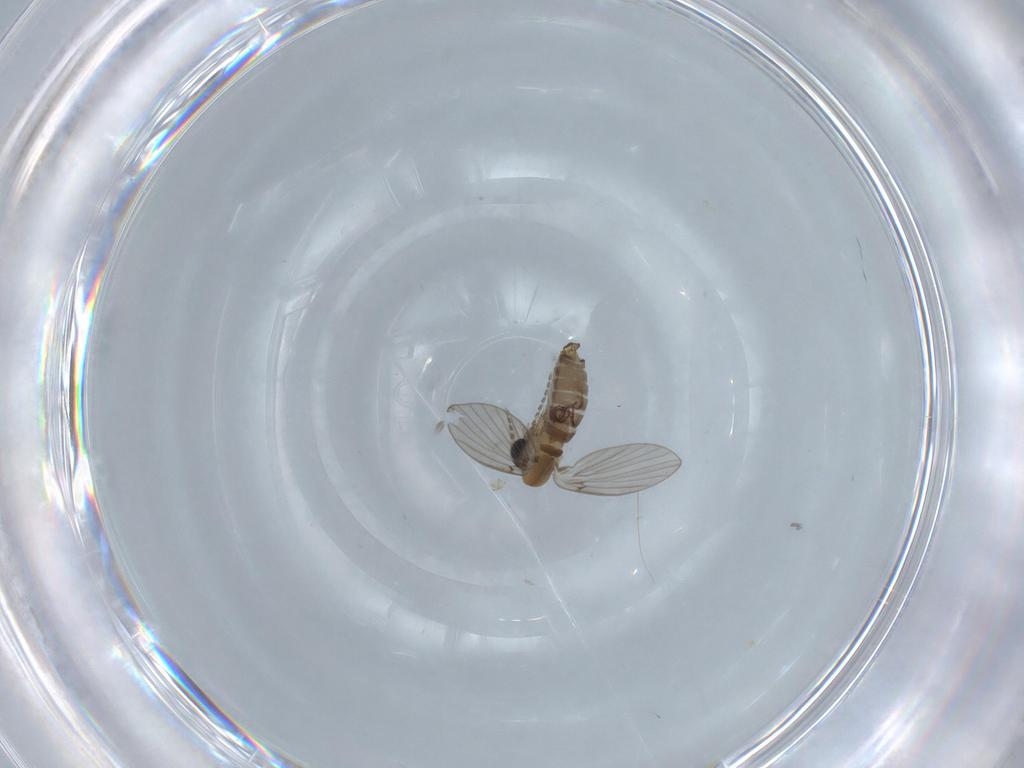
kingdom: Animalia
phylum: Arthropoda
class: Insecta
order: Diptera
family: Psychodidae
